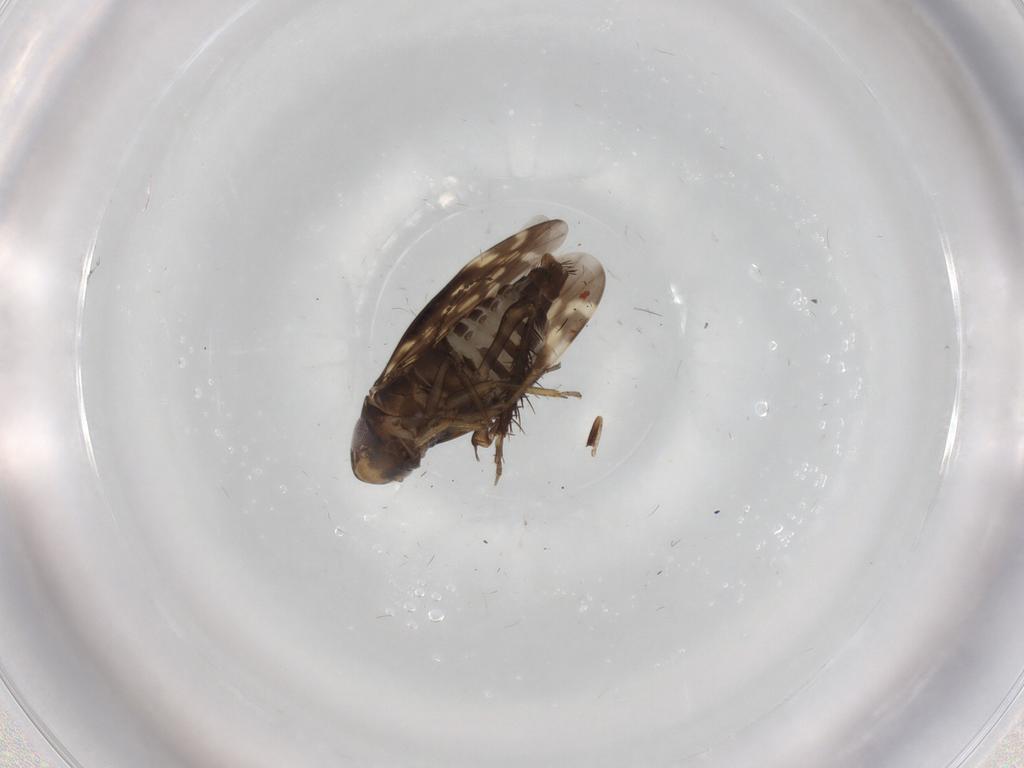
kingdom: Animalia
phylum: Arthropoda
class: Insecta
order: Hemiptera
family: Cicadellidae
